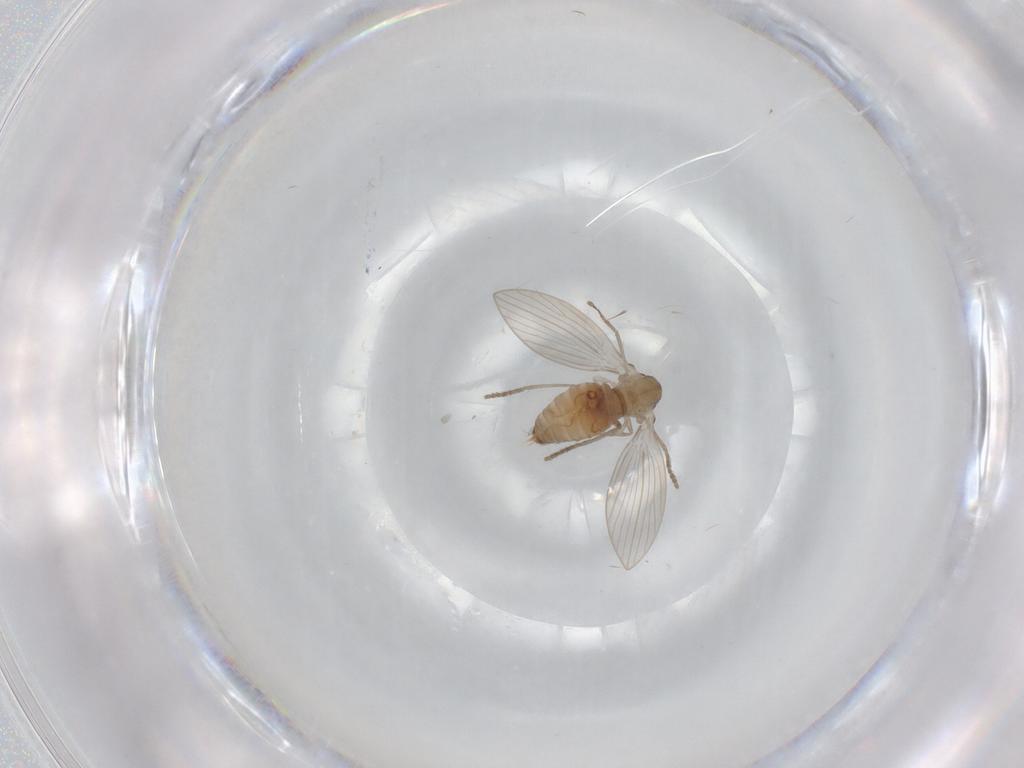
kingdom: Animalia
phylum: Arthropoda
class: Insecta
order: Diptera
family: Psychodidae
